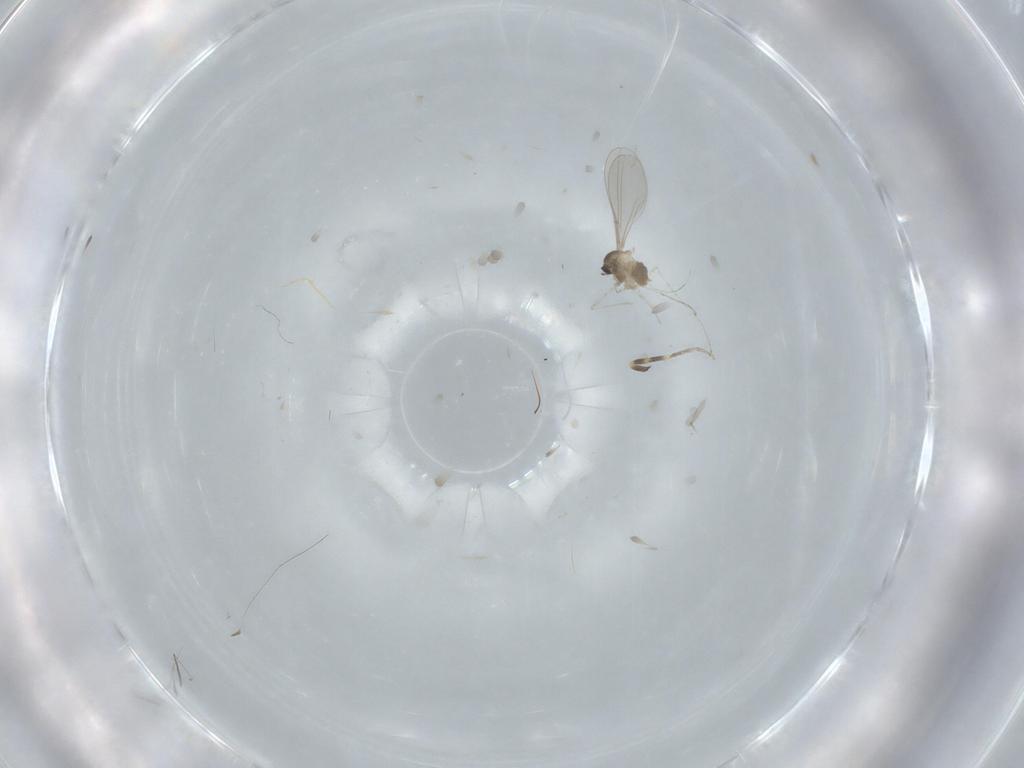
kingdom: Animalia
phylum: Arthropoda
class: Insecta
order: Diptera
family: Ceratopogonidae
